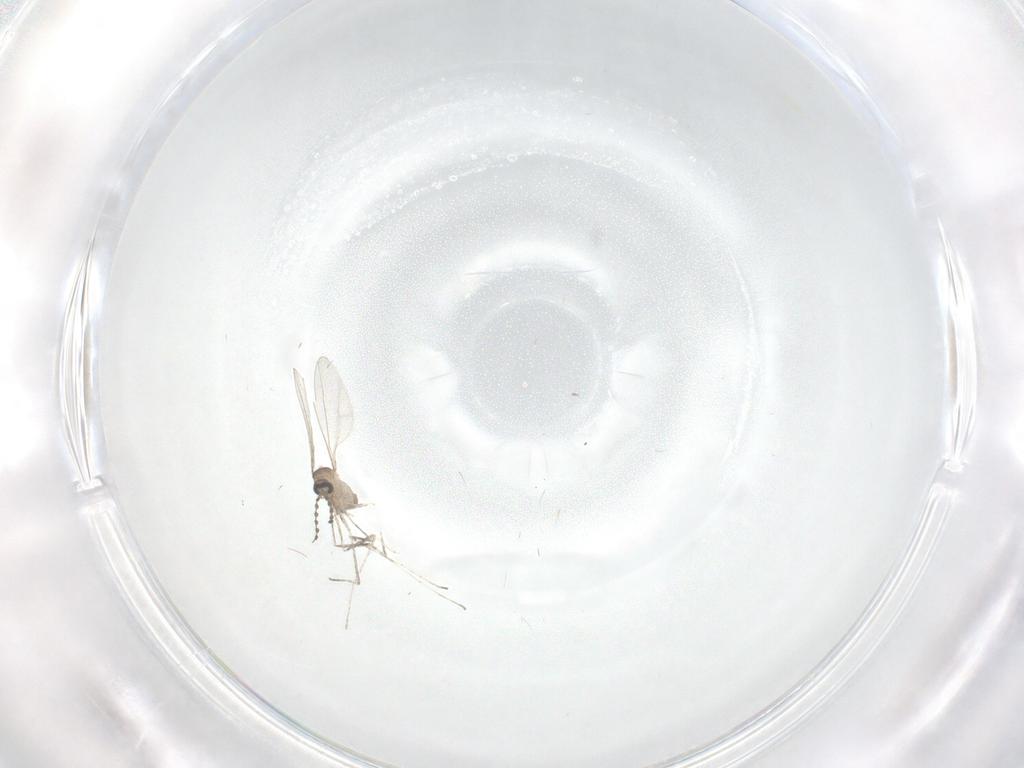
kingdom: Animalia
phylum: Arthropoda
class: Insecta
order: Diptera
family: Cecidomyiidae
